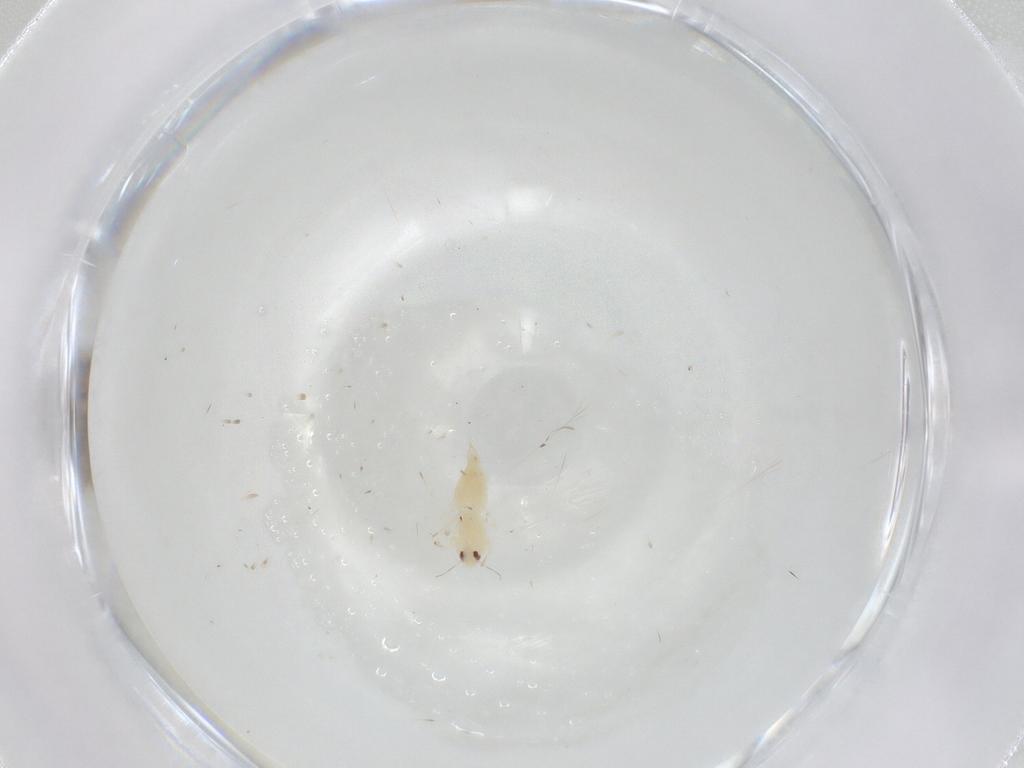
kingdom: Animalia
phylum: Arthropoda
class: Insecta
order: Hemiptera
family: Aleyrodidae
